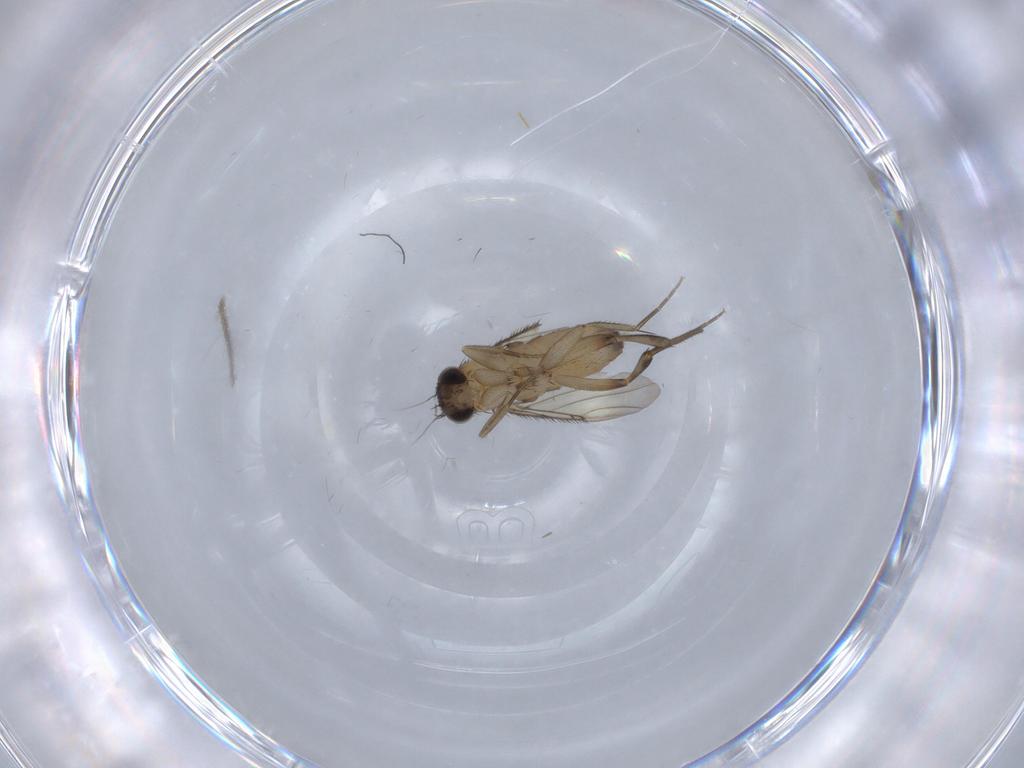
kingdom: Animalia
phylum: Arthropoda
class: Insecta
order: Diptera
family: Phoridae
